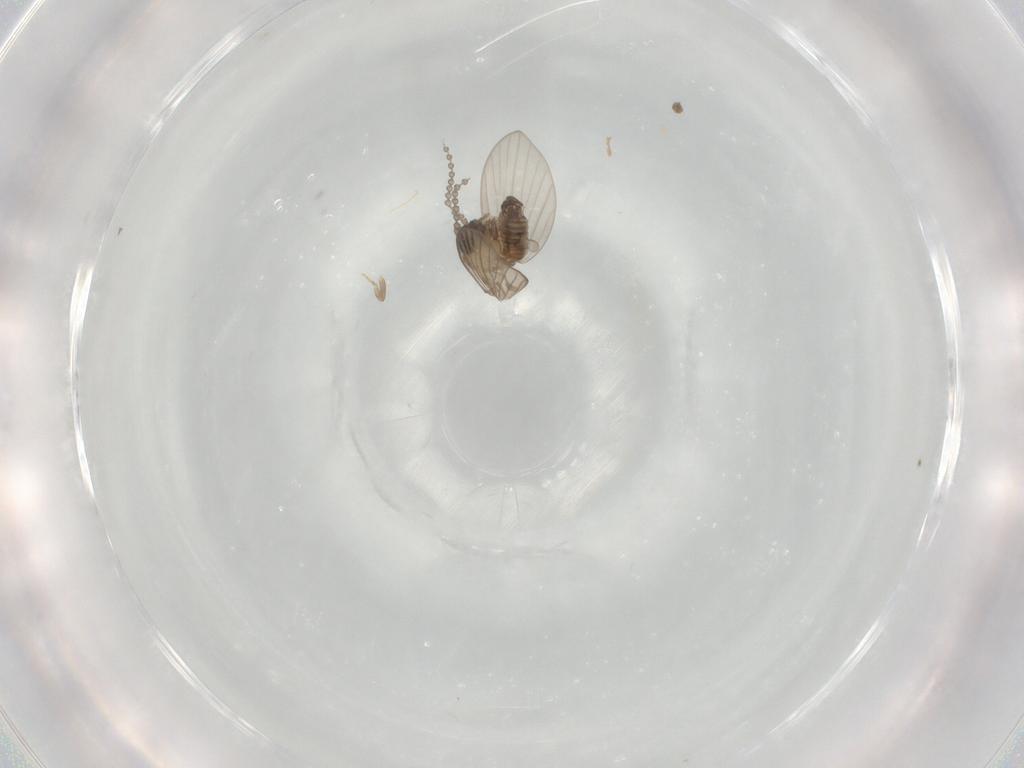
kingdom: Animalia
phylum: Arthropoda
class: Insecta
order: Diptera
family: Psychodidae
